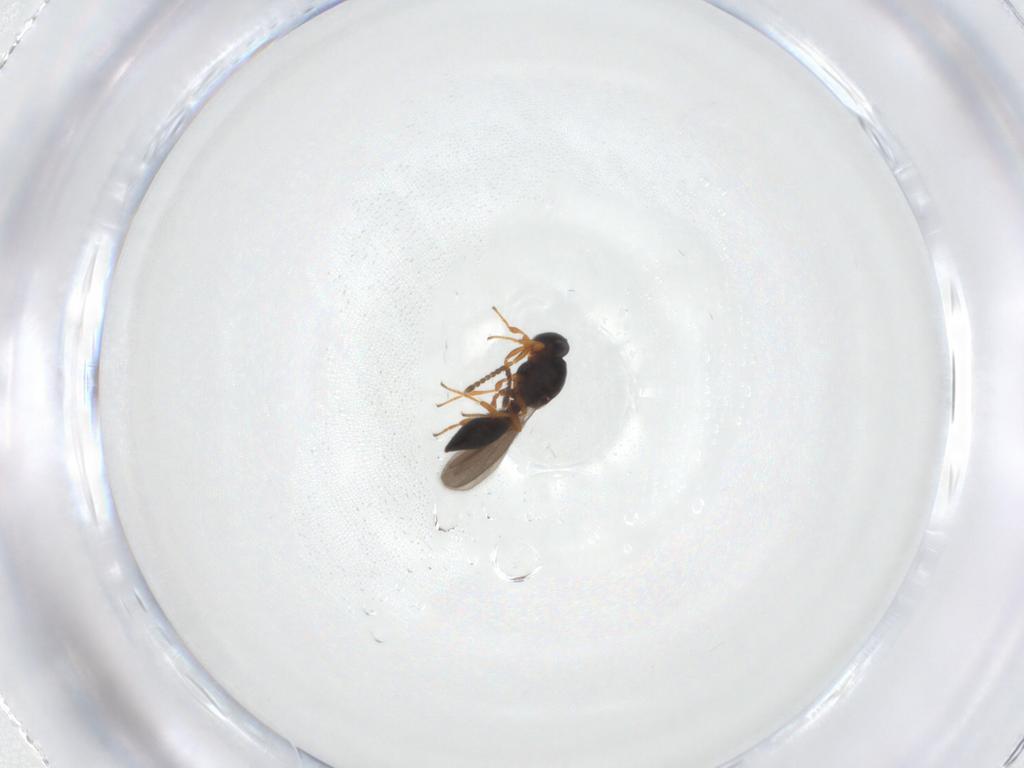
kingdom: Animalia
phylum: Arthropoda
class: Insecta
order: Hymenoptera
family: Platygastridae
